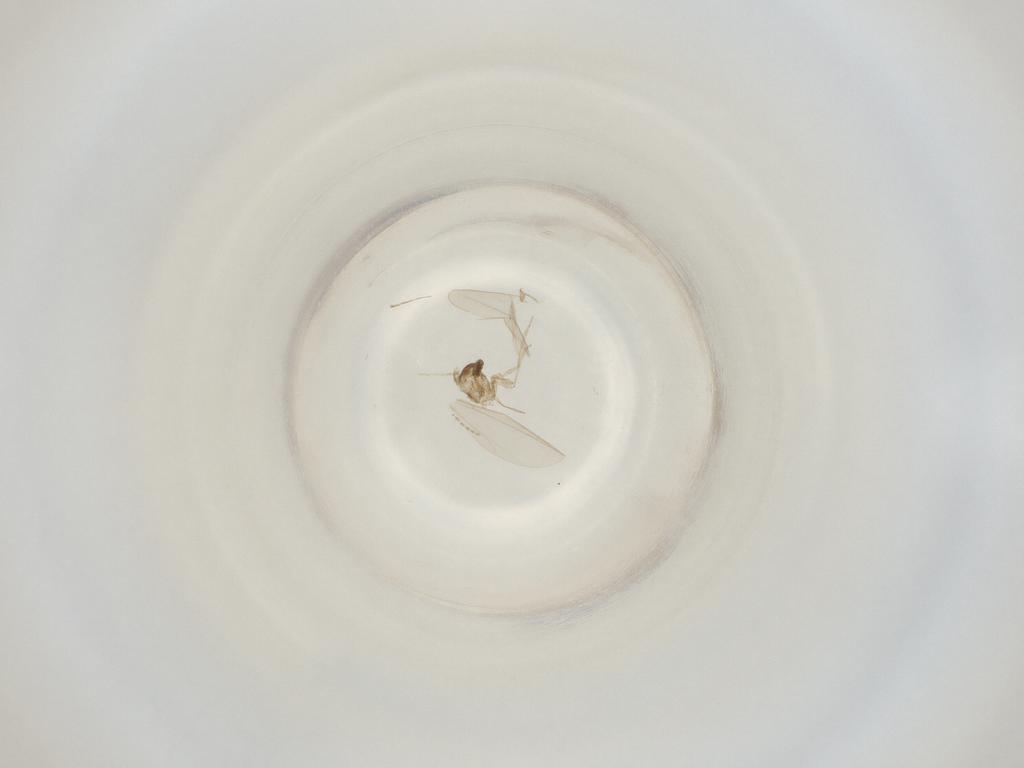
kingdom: Animalia
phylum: Arthropoda
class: Insecta
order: Diptera
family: Cecidomyiidae
